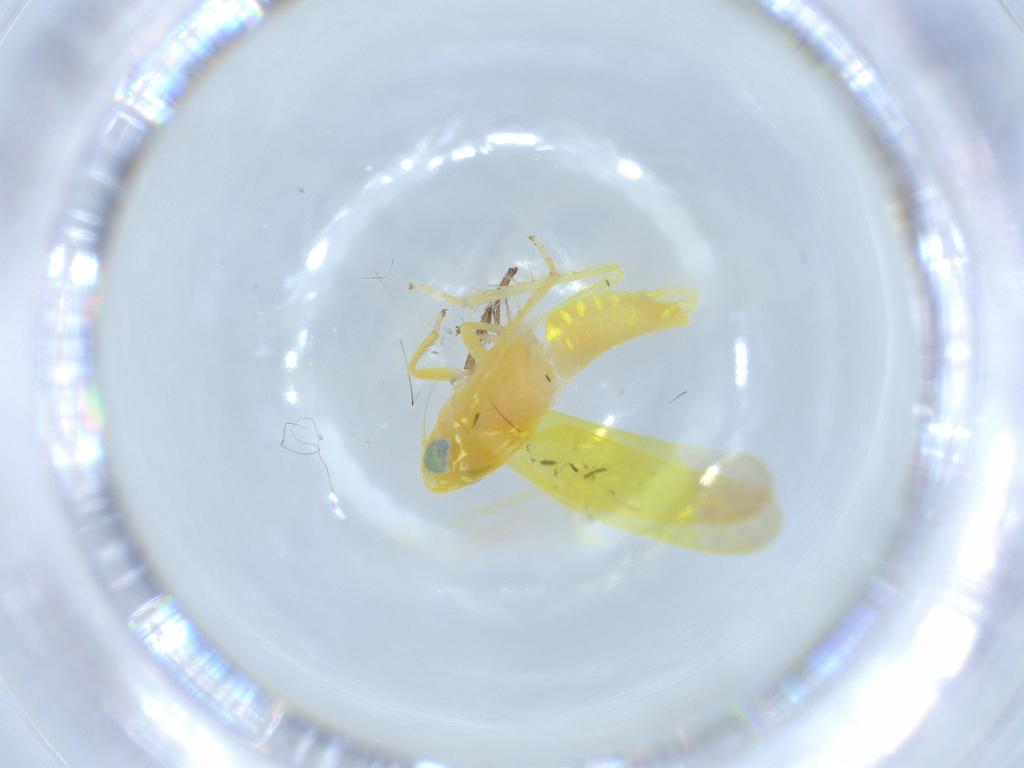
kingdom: Animalia
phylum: Arthropoda
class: Insecta
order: Hemiptera
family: Cicadellidae
